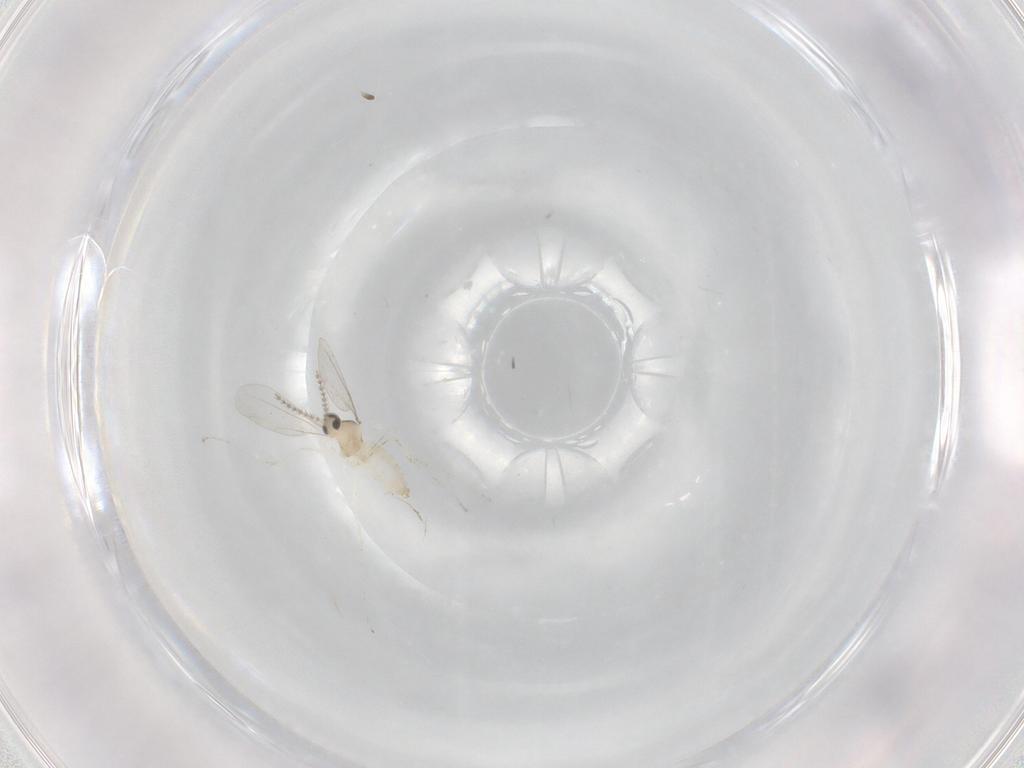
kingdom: Animalia
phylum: Arthropoda
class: Insecta
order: Diptera
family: Cecidomyiidae
